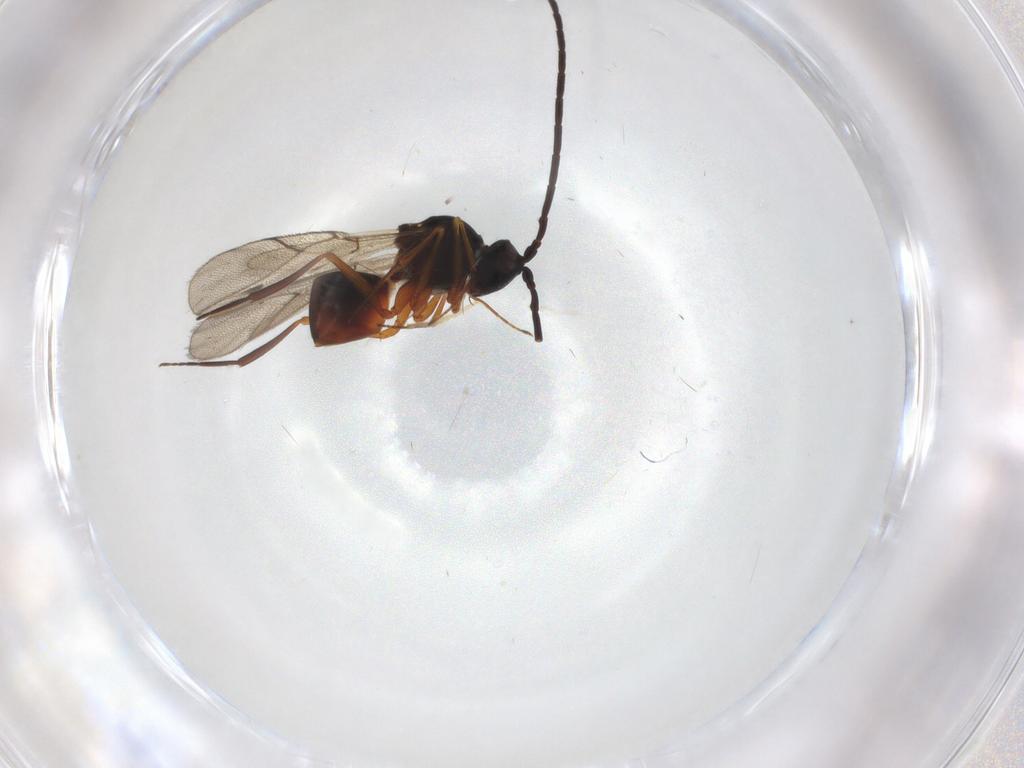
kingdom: Animalia
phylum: Arthropoda
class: Insecta
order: Hymenoptera
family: Figitidae
